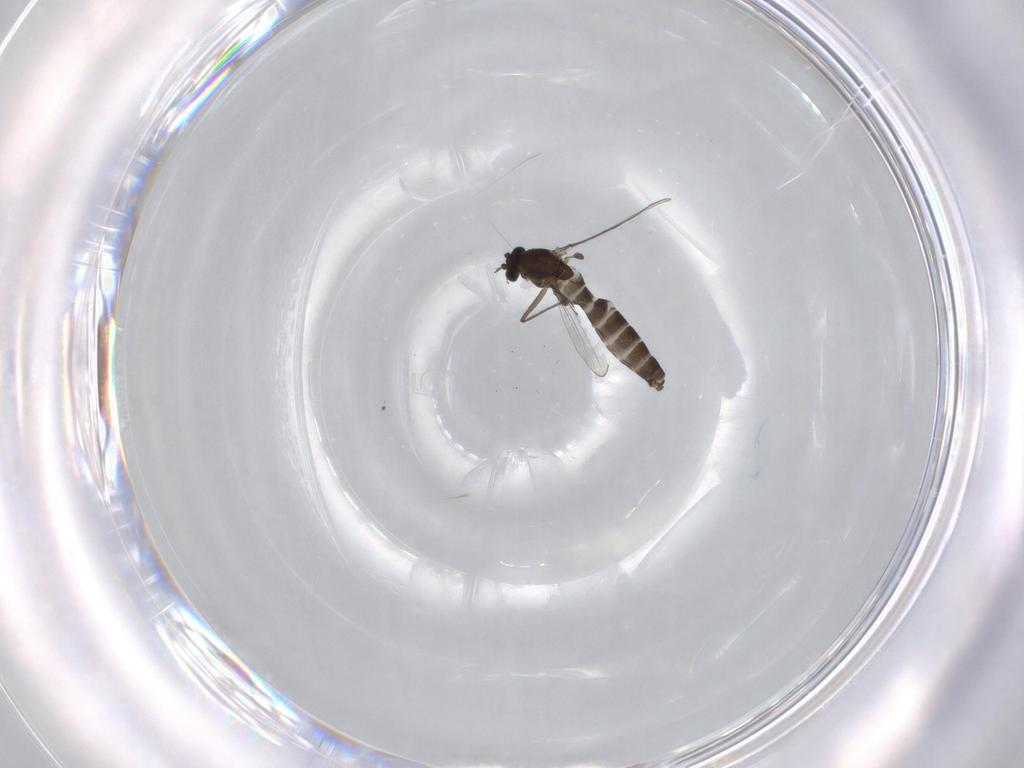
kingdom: Animalia
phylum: Arthropoda
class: Insecta
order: Diptera
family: Chironomidae
